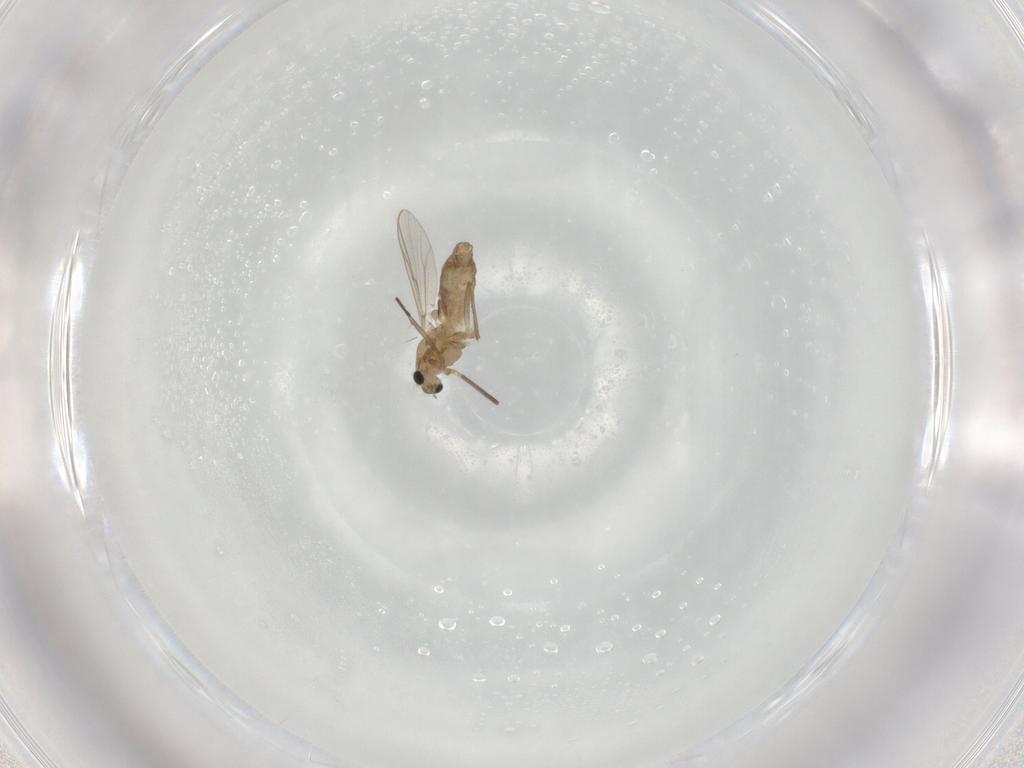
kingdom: Animalia
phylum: Arthropoda
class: Insecta
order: Diptera
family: Chironomidae
